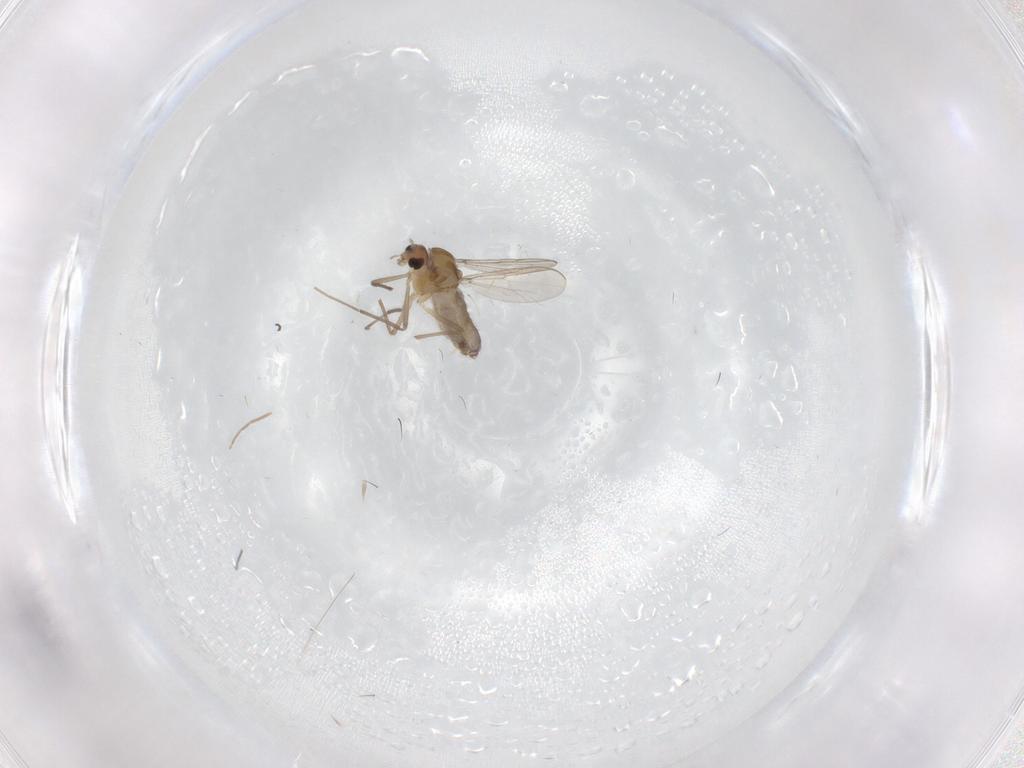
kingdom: Animalia
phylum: Arthropoda
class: Insecta
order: Diptera
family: Chironomidae
